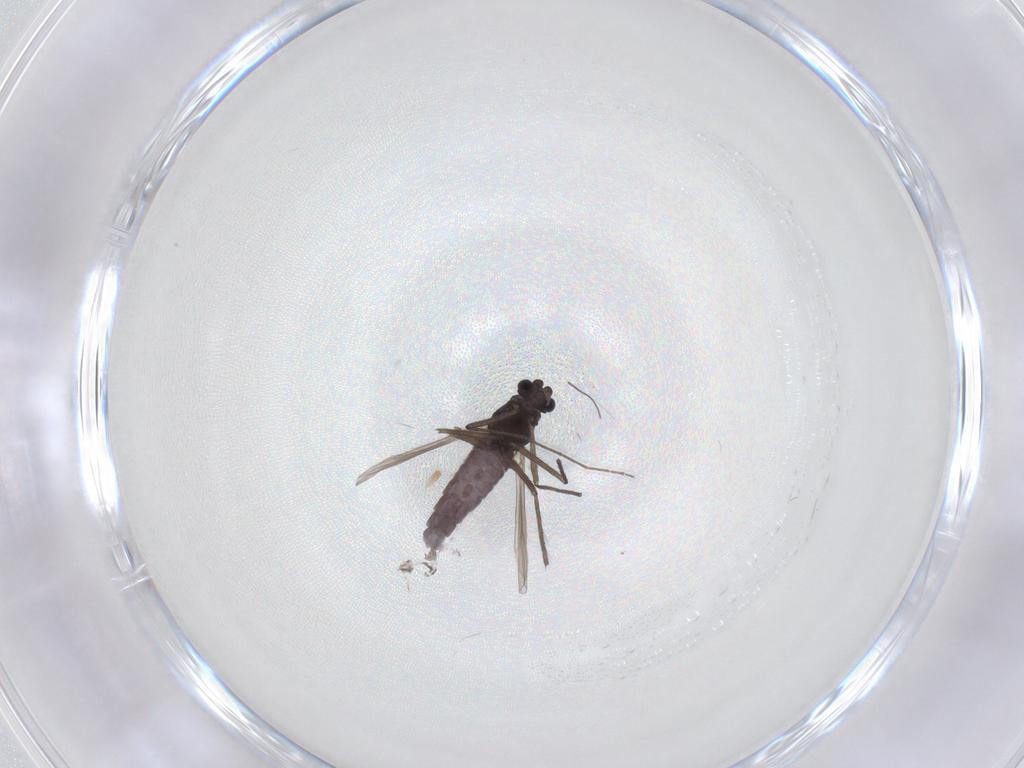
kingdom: Animalia
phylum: Arthropoda
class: Insecta
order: Diptera
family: Chironomidae
